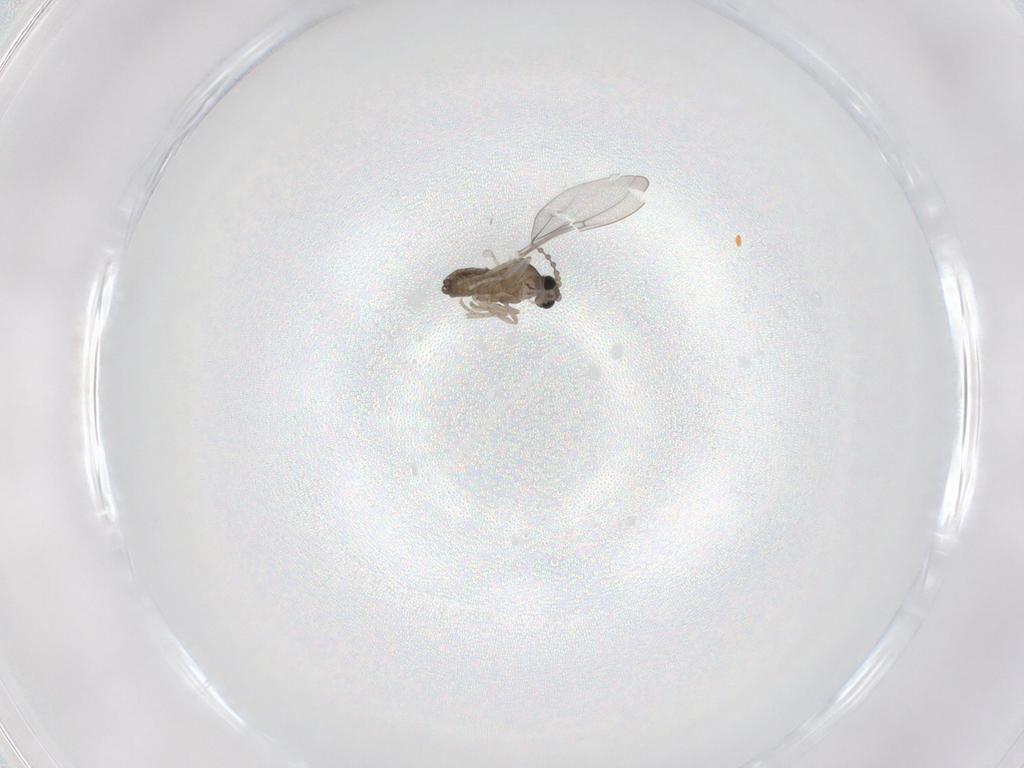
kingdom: Animalia
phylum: Arthropoda
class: Insecta
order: Diptera
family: Cecidomyiidae
